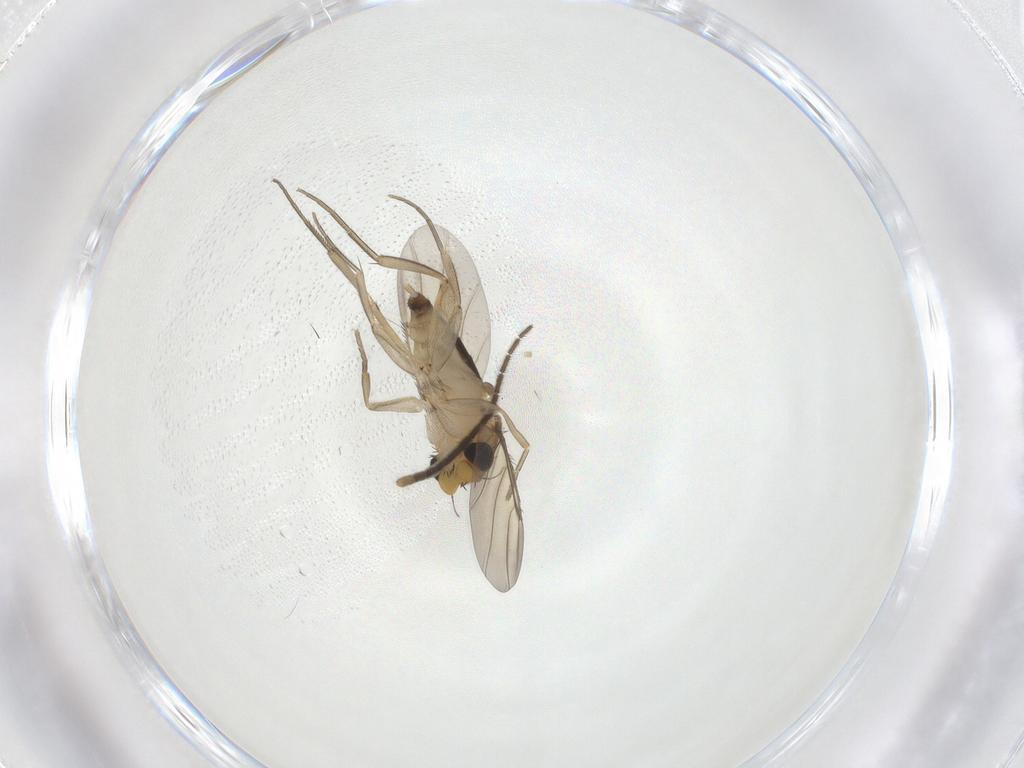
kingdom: Animalia
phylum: Arthropoda
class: Insecta
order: Diptera
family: Sciaridae
